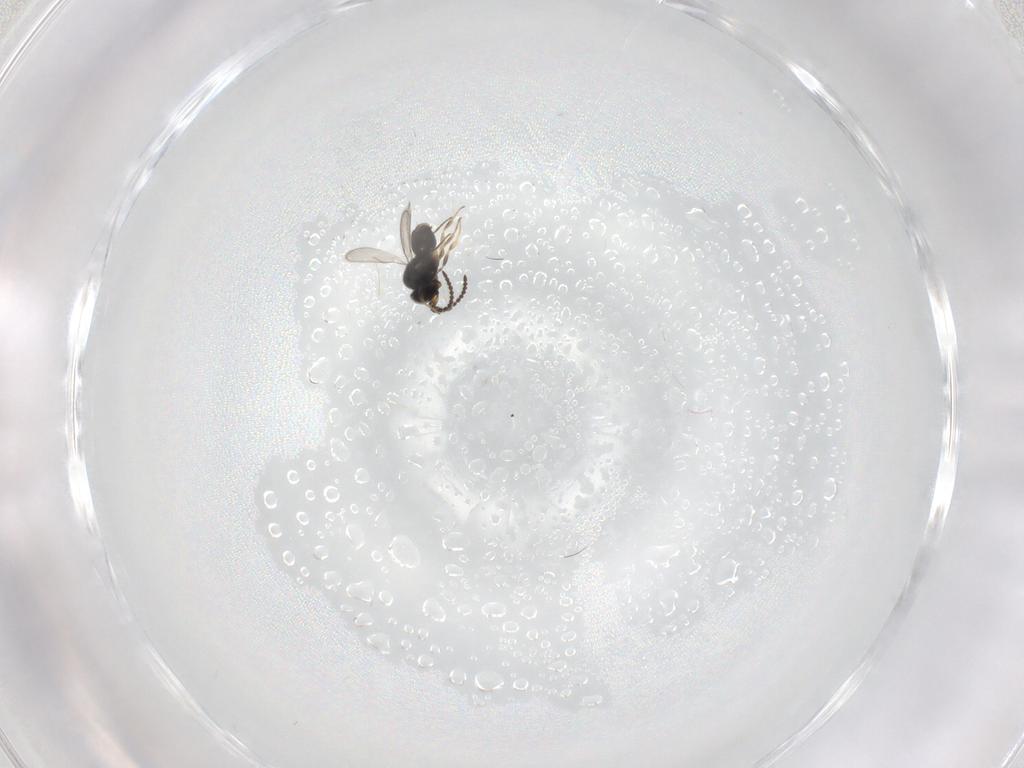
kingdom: Animalia
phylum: Arthropoda
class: Insecta
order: Hymenoptera
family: Scelionidae
